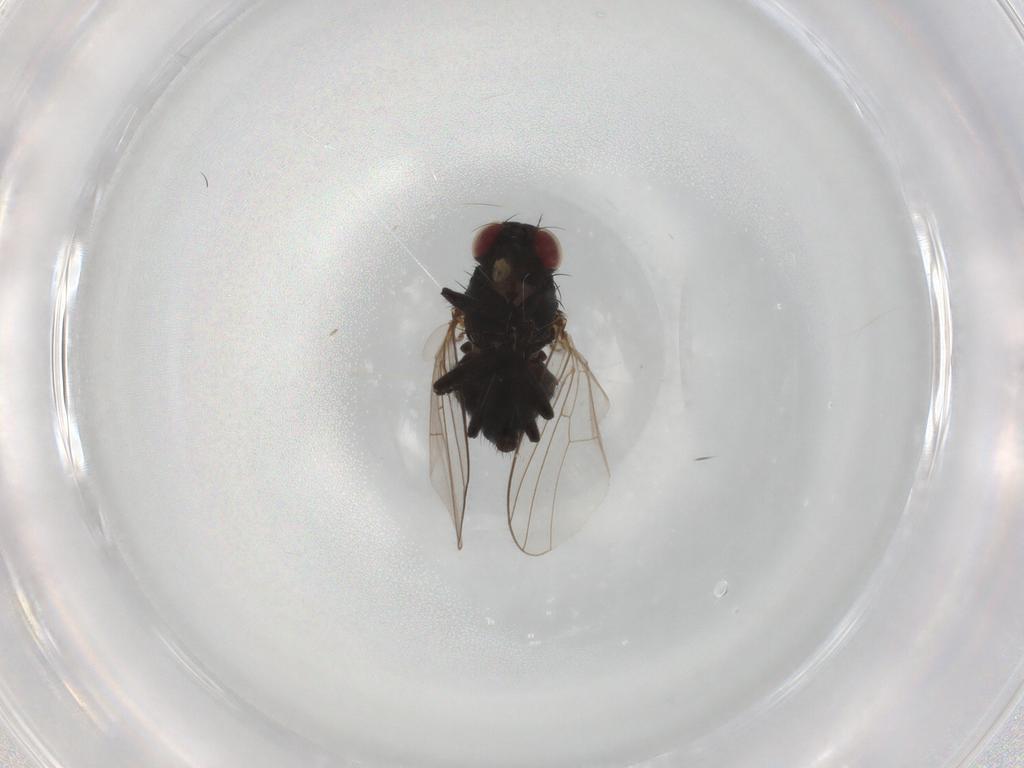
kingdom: Animalia
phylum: Arthropoda
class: Insecta
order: Diptera
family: Agromyzidae
